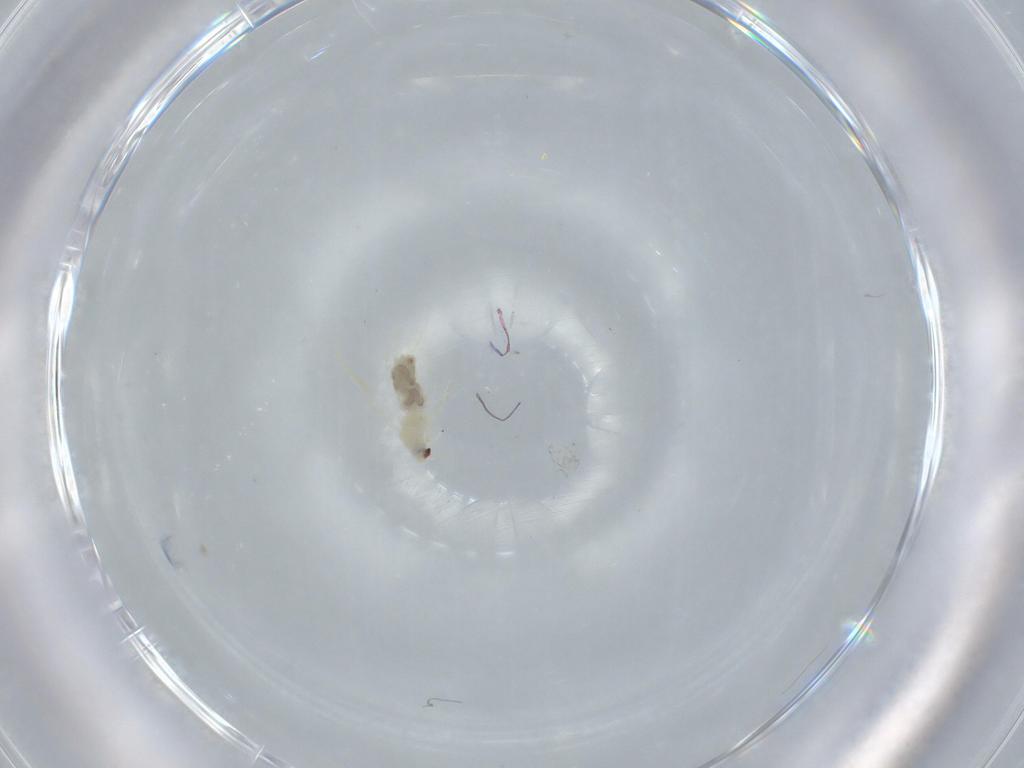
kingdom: Animalia
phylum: Arthropoda
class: Insecta
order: Hemiptera
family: Aleyrodidae
